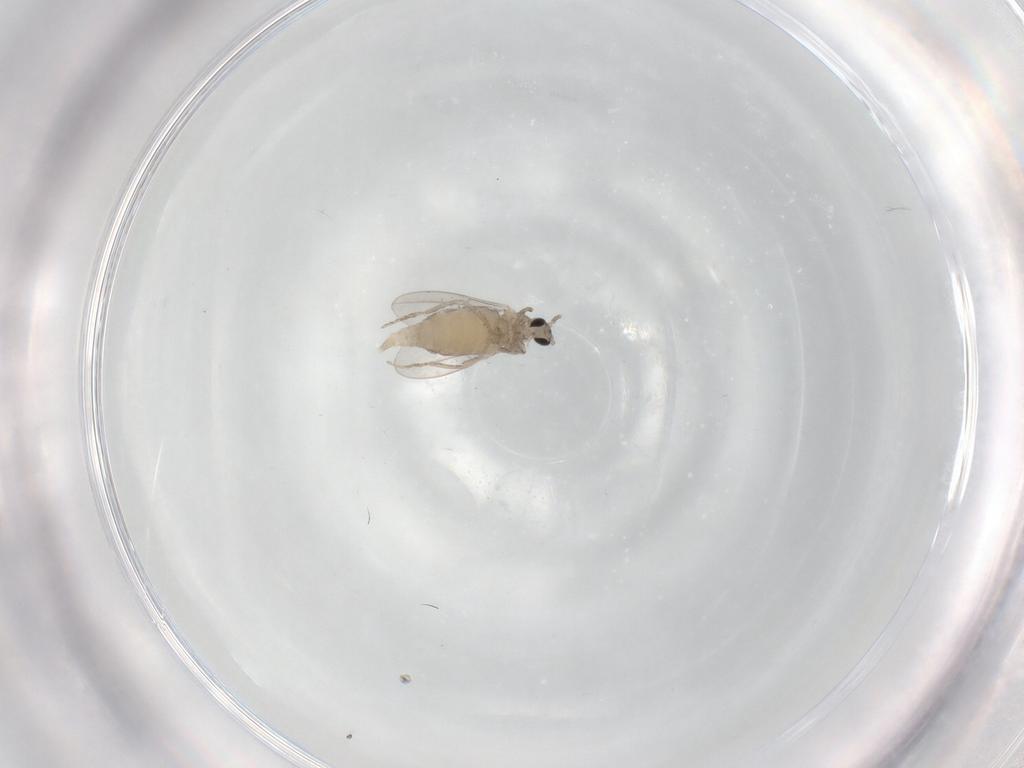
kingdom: Animalia
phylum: Arthropoda
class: Insecta
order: Diptera
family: Cecidomyiidae
